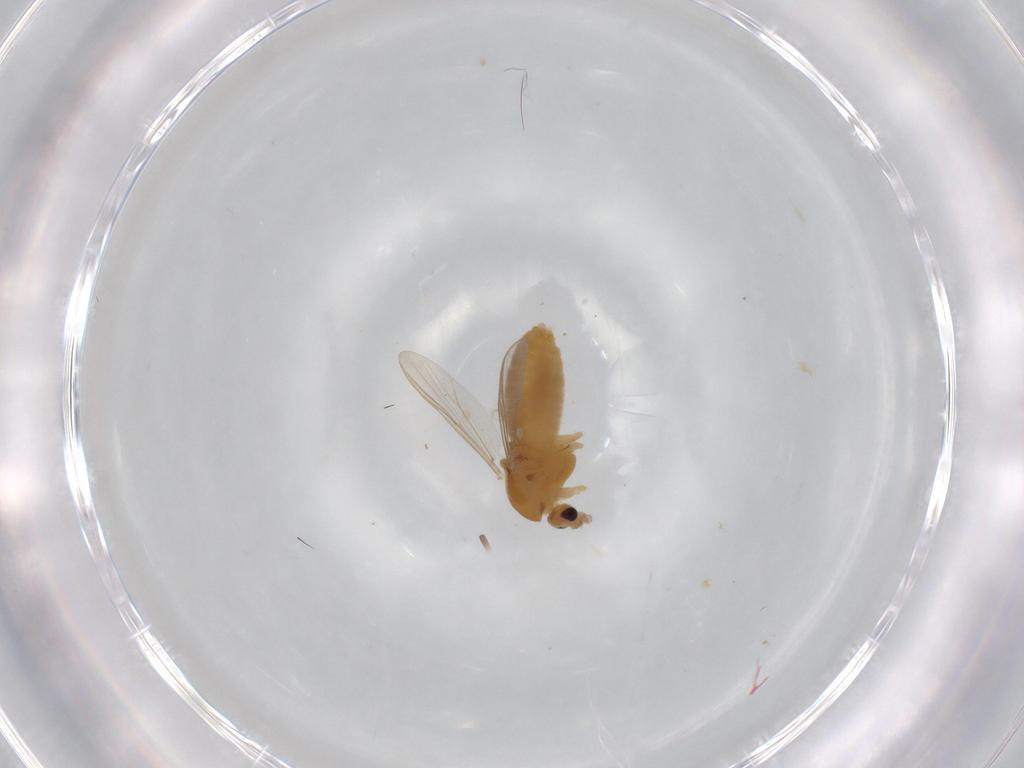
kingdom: Animalia
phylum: Arthropoda
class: Insecta
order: Diptera
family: Chironomidae
